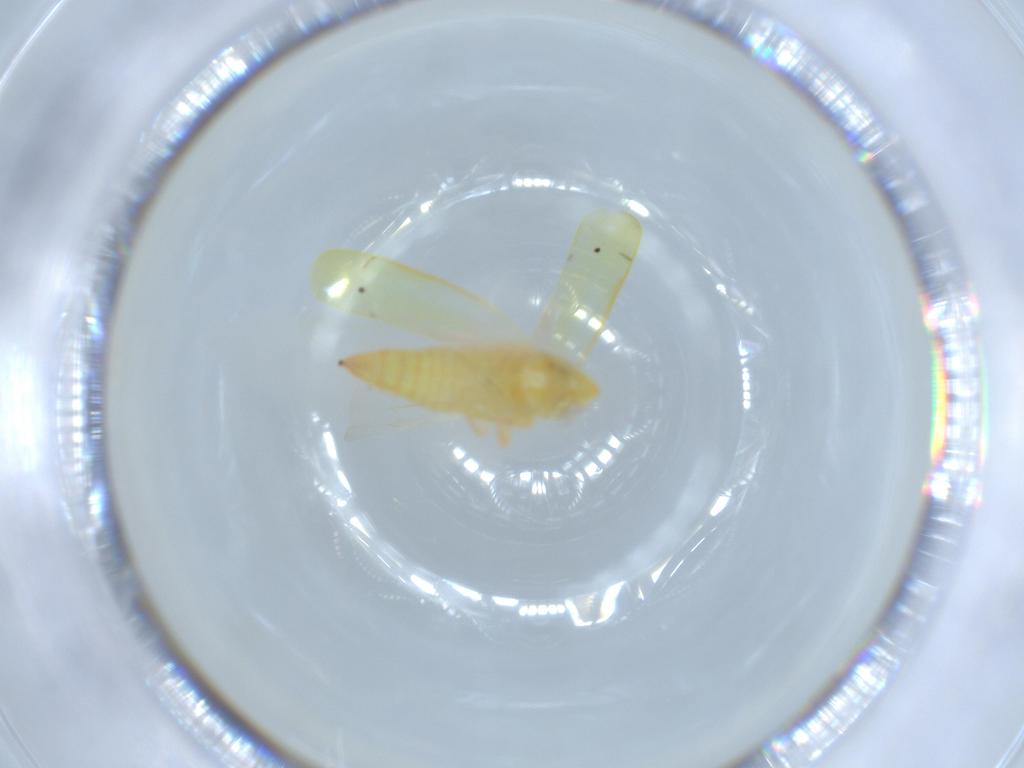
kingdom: Animalia
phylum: Arthropoda
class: Insecta
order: Hemiptera
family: Cicadellidae
